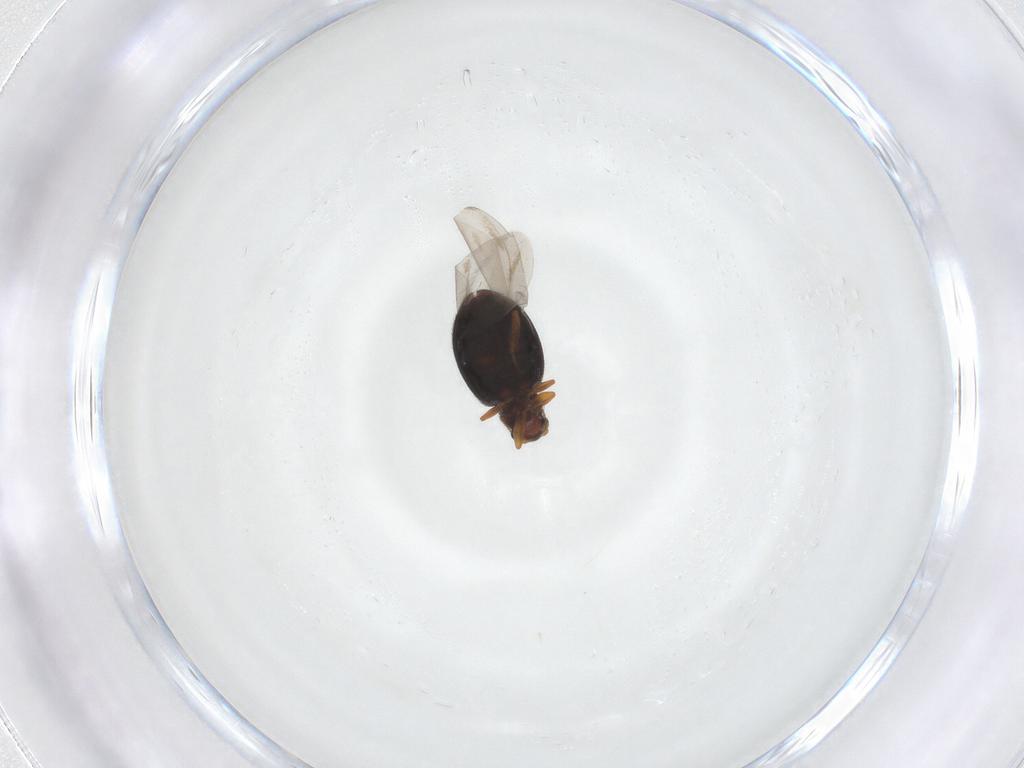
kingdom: Animalia
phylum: Arthropoda
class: Insecta
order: Coleoptera
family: Latridiidae
